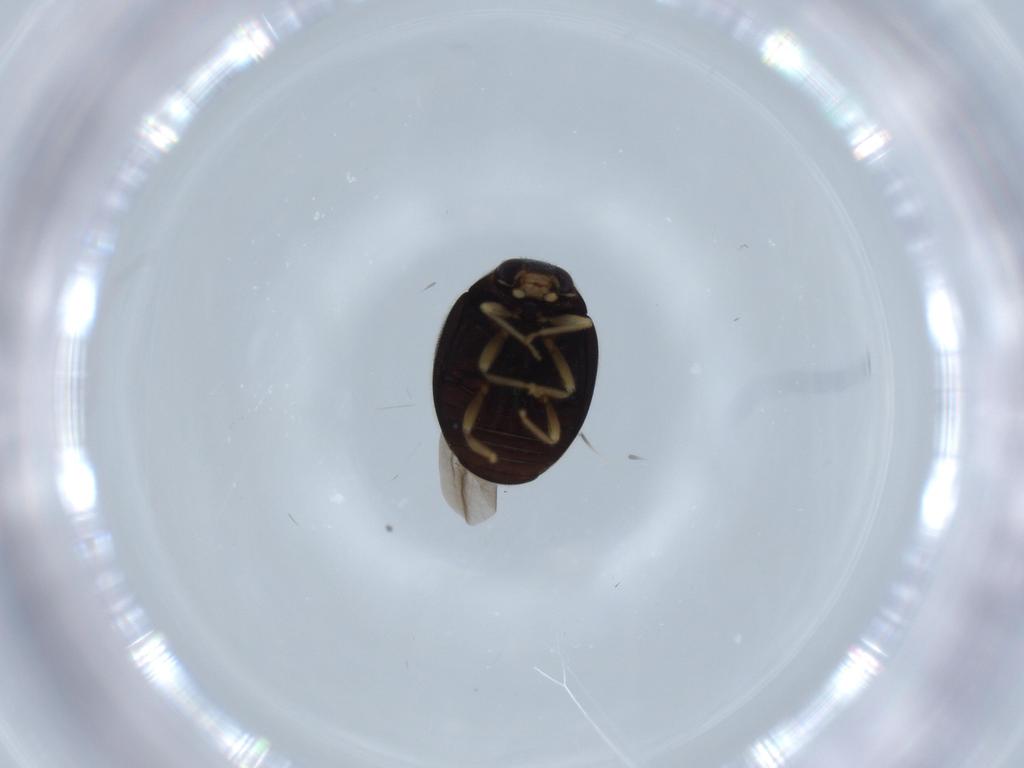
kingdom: Animalia
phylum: Arthropoda
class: Insecta
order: Coleoptera
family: Coccinellidae
